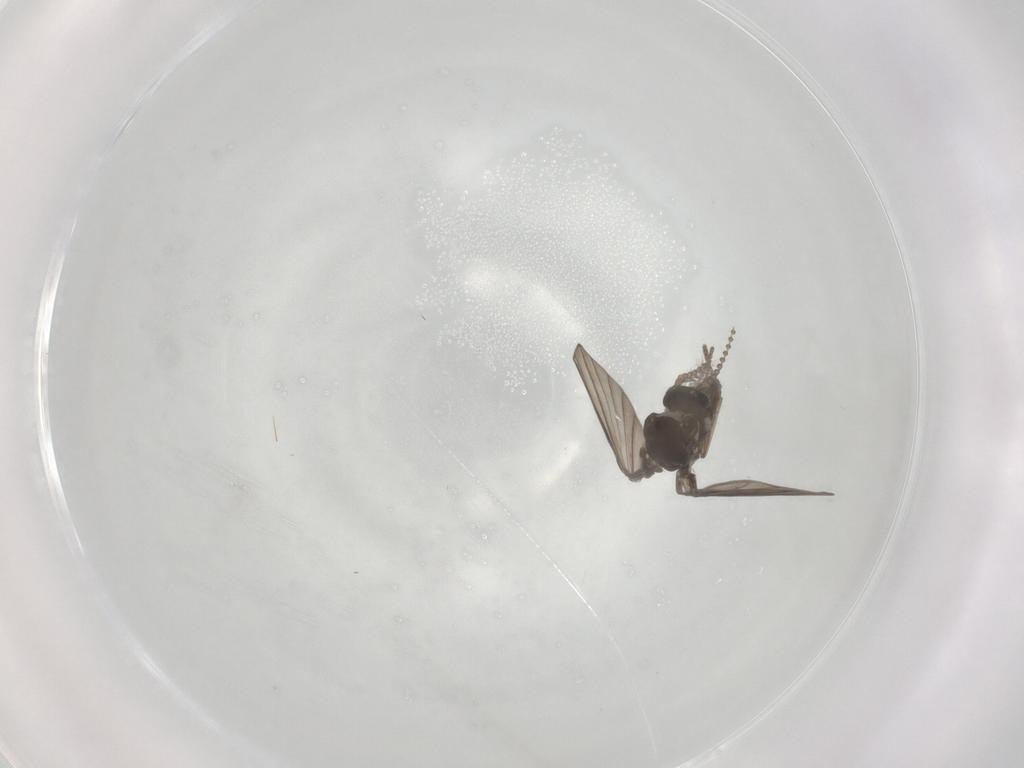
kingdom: Animalia
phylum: Arthropoda
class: Insecta
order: Diptera
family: Psychodidae
